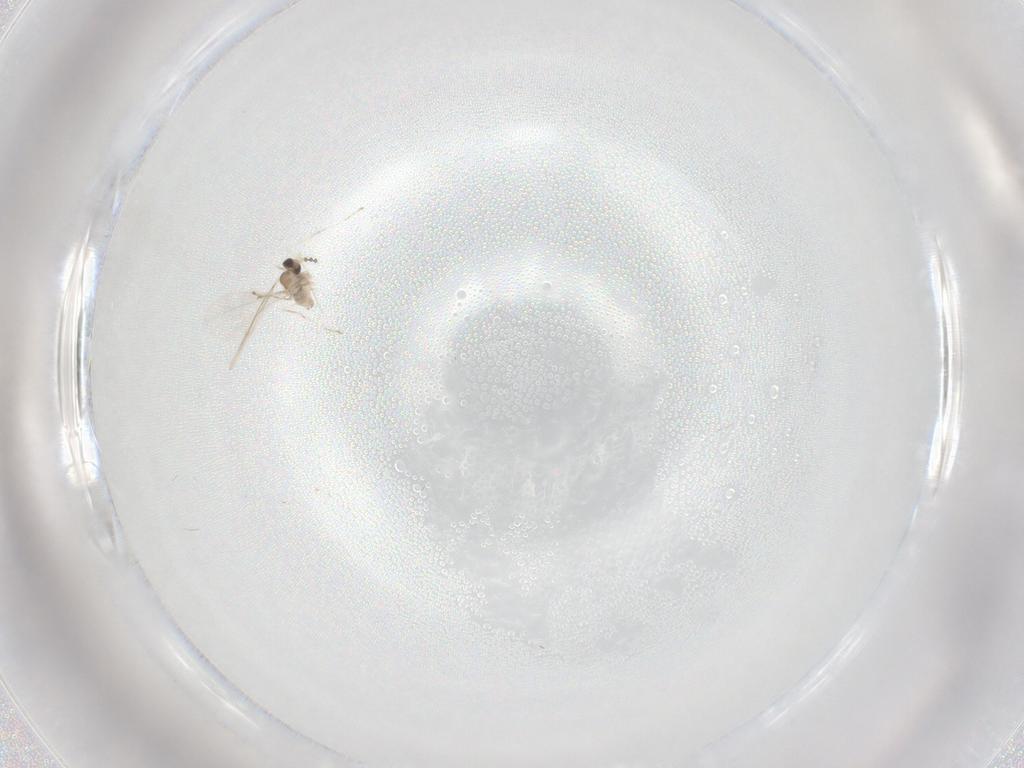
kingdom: Animalia
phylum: Arthropoda
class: Insecta
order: Diptera
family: Cecidomyiidae
